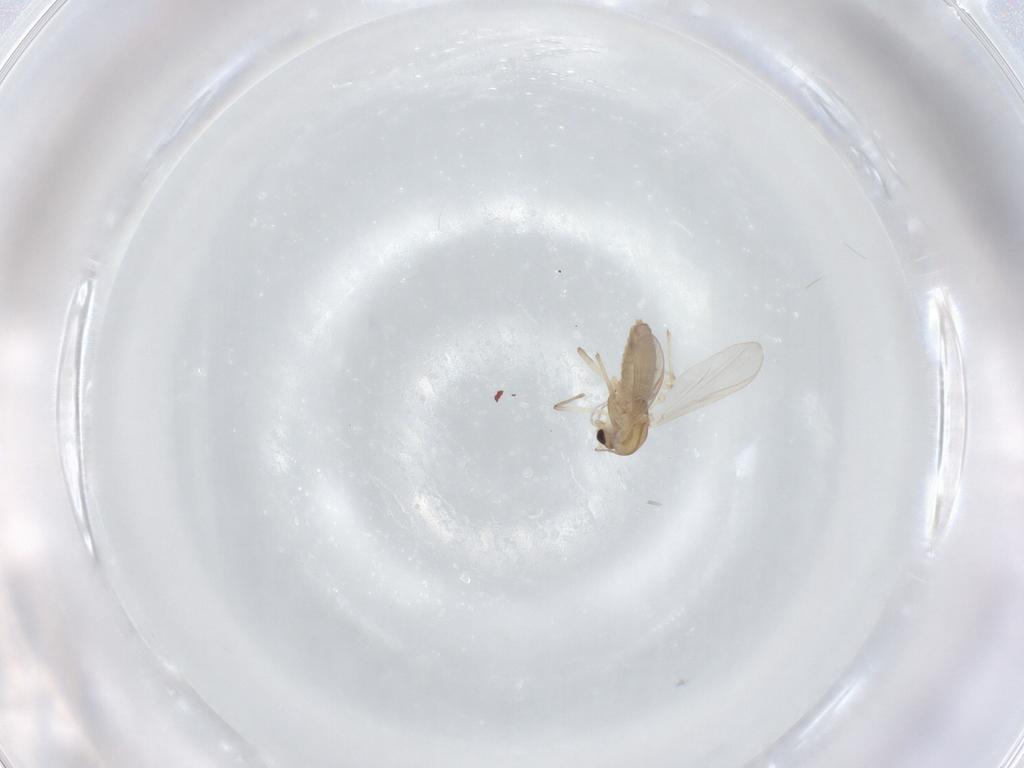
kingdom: Animalia
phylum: Arthropoda
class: Insecta
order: Diptera
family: Chironomidae
